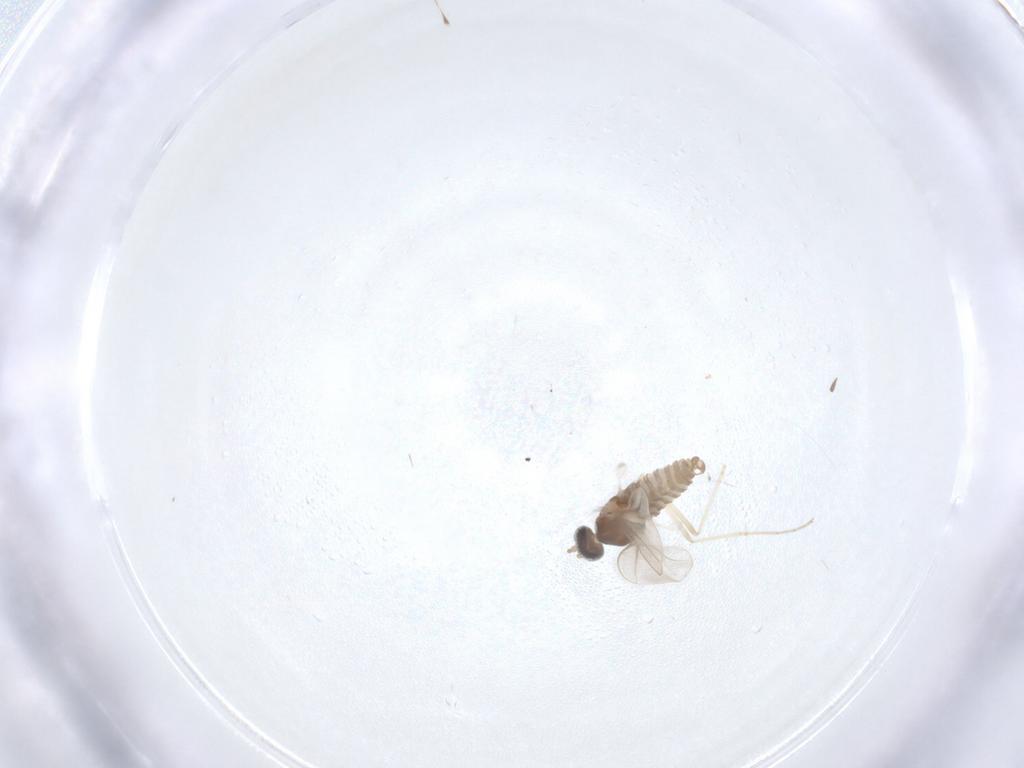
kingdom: Animalia
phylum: Arthropoda
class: Insecta
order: Diptera
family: Cecidomyiidae
